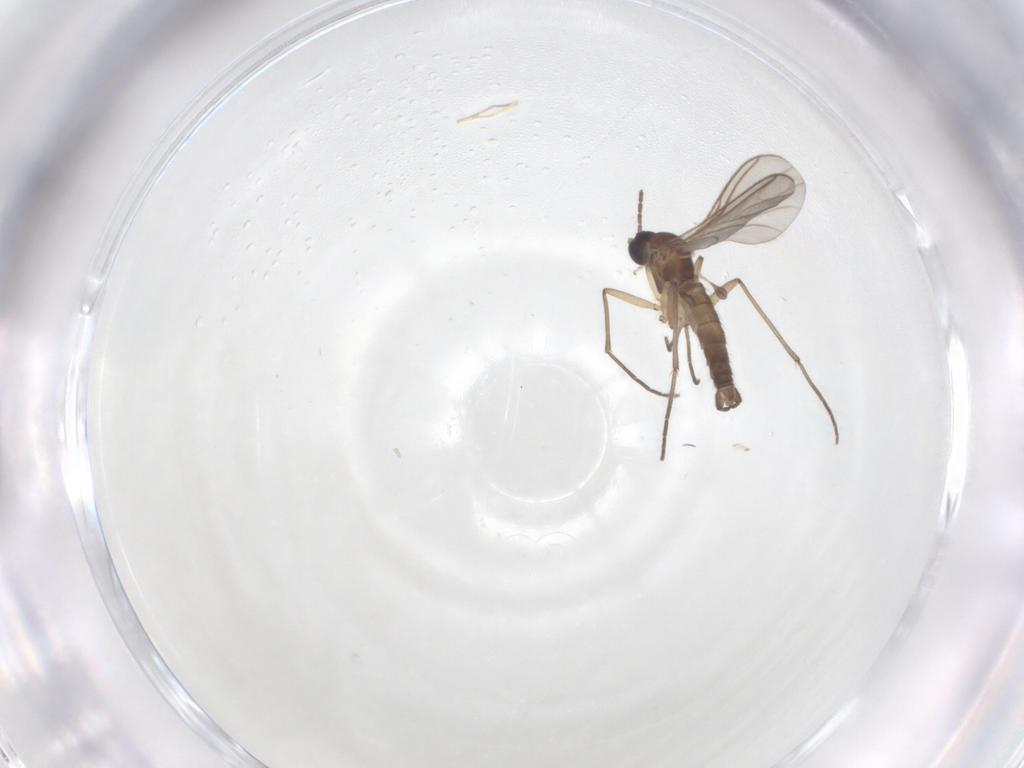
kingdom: Animalia
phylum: Arthropoda
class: Insecta
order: Diptera
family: Sciaridae
